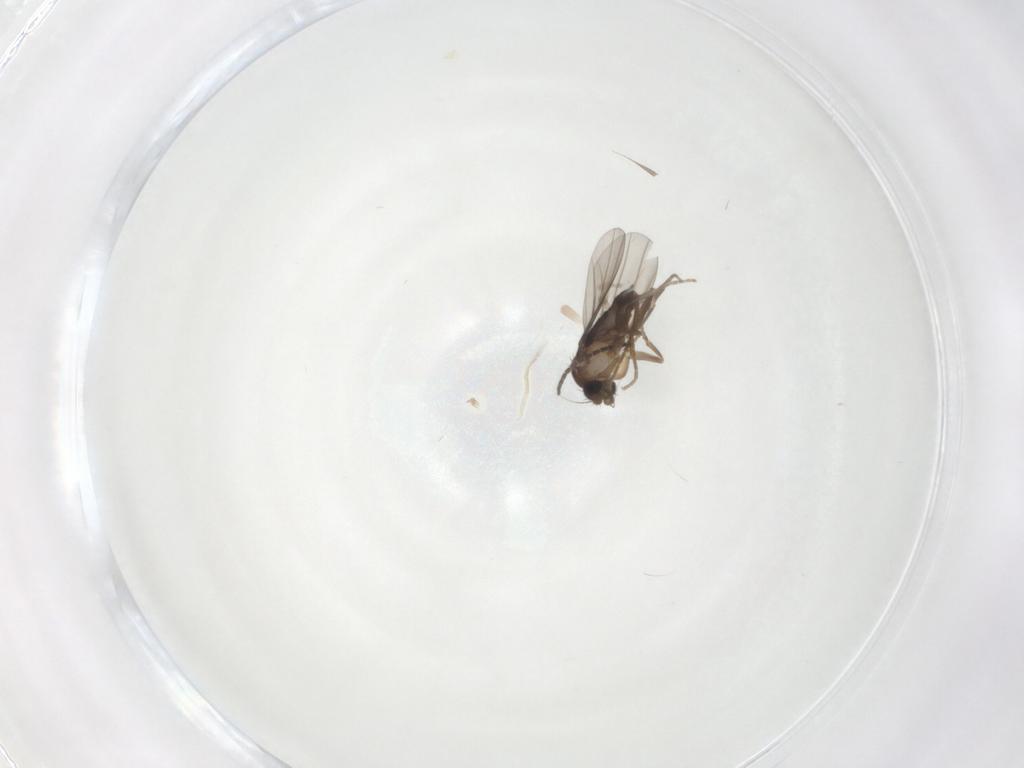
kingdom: Animalia
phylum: Arthropoda
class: Insecta
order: Diptera
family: Phoridae
